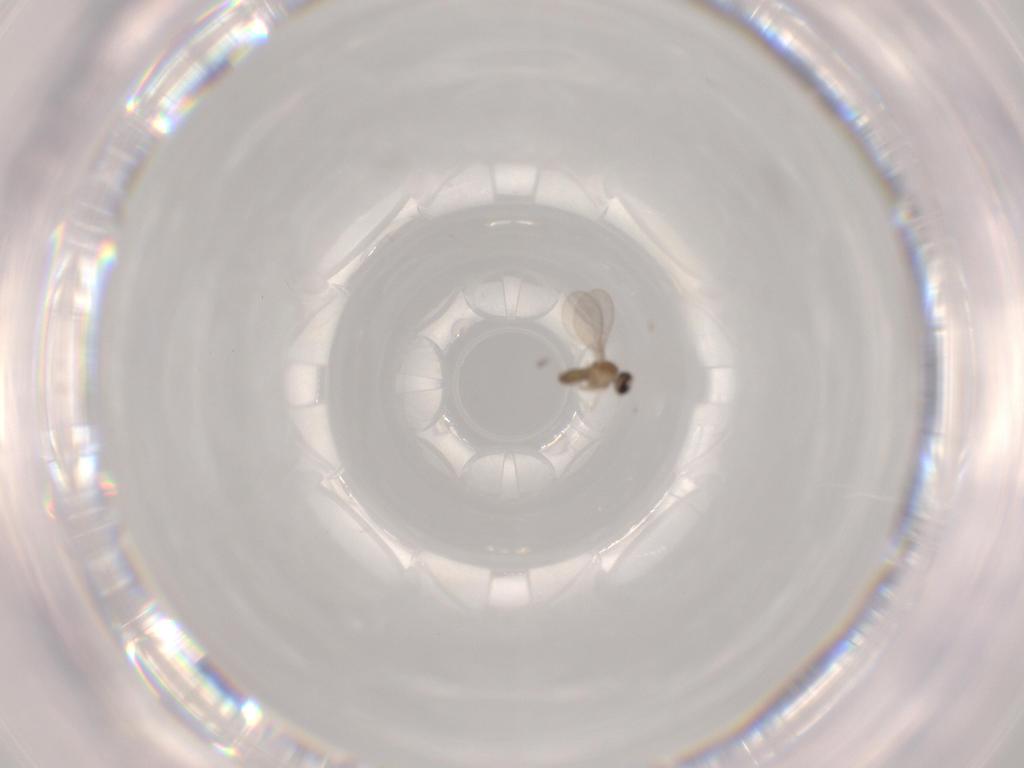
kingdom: Animalia
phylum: Arthropoda
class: Insecta
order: Diptera
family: Cecidomyiidae
